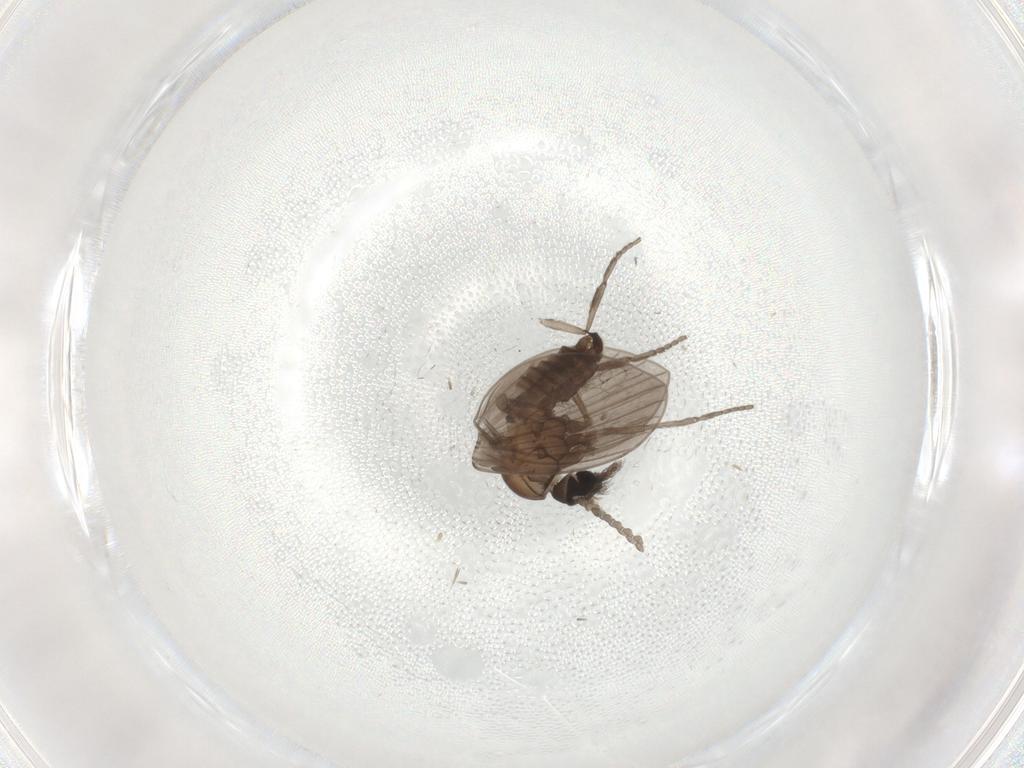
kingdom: Animalia
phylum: Arthropoda
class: Insecta
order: Diptera
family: Psychodidae
